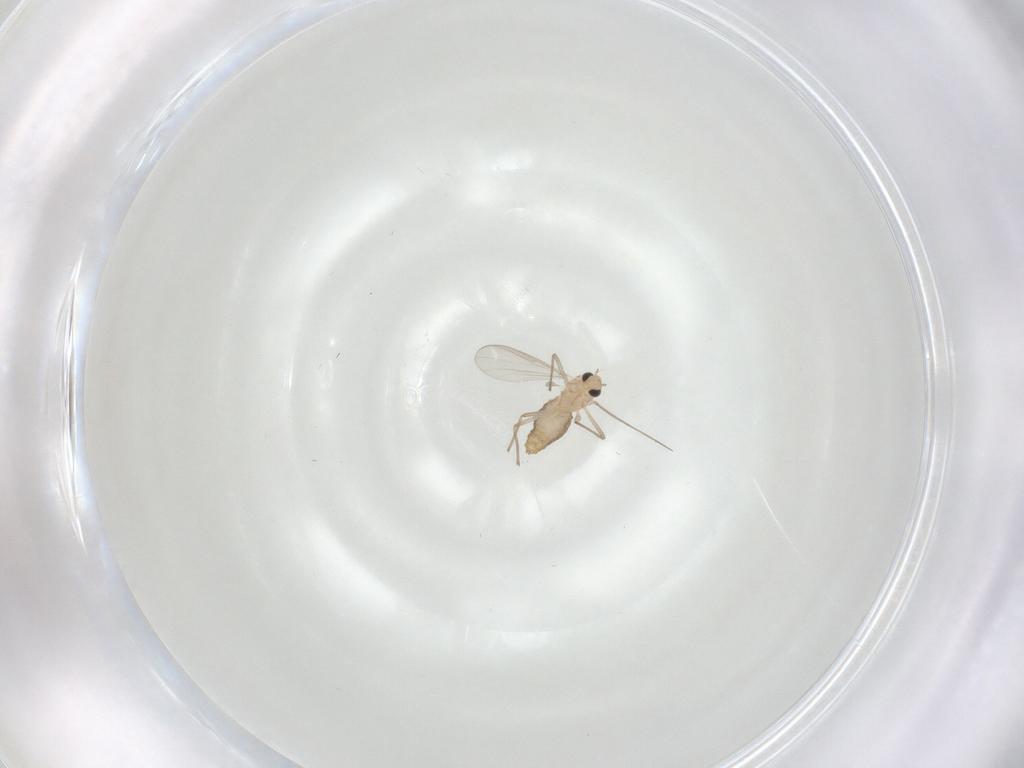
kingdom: Animalia
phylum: Arthropoda
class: Insecta
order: Diptera
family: Chironomidae
